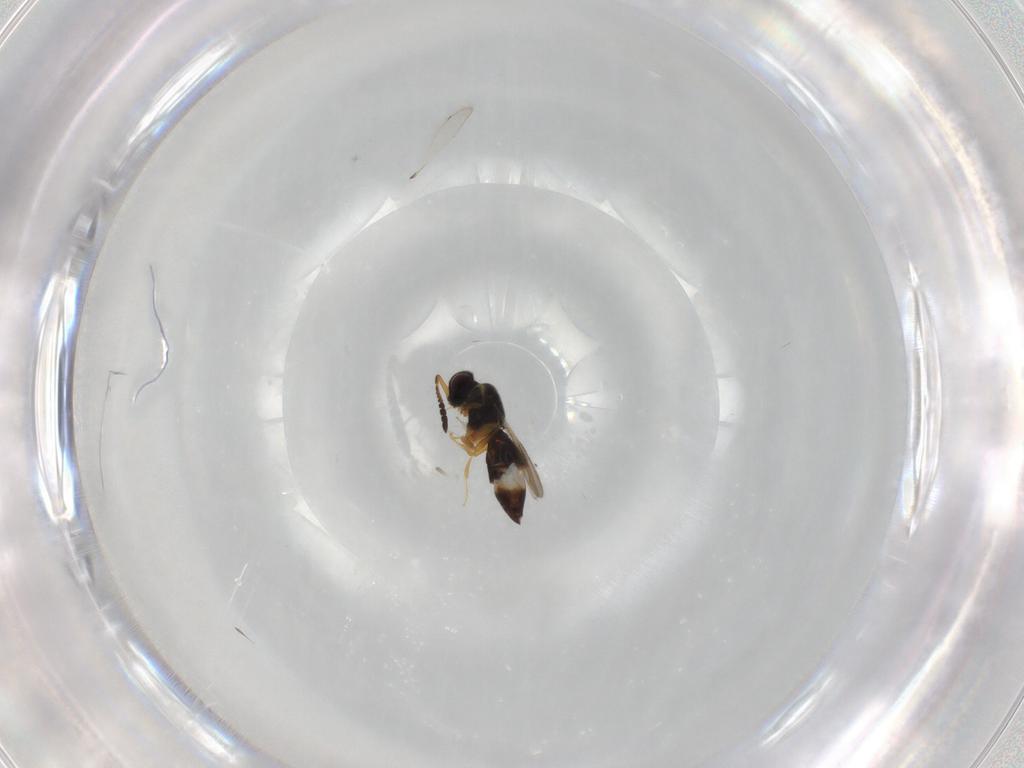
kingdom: Animalia
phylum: Arthropoda
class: Insecta
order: Hymenoptera
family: Diapriidae
